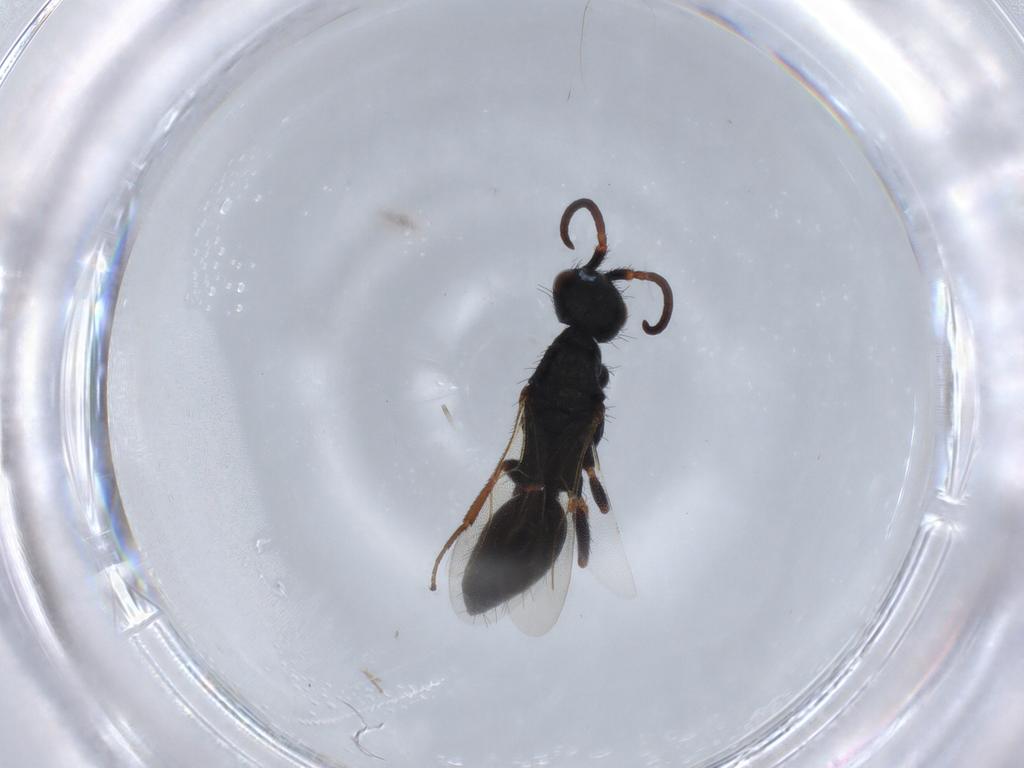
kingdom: Animalia
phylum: Arthropoda
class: Insecta
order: Hymenoptera
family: Bethylidae
